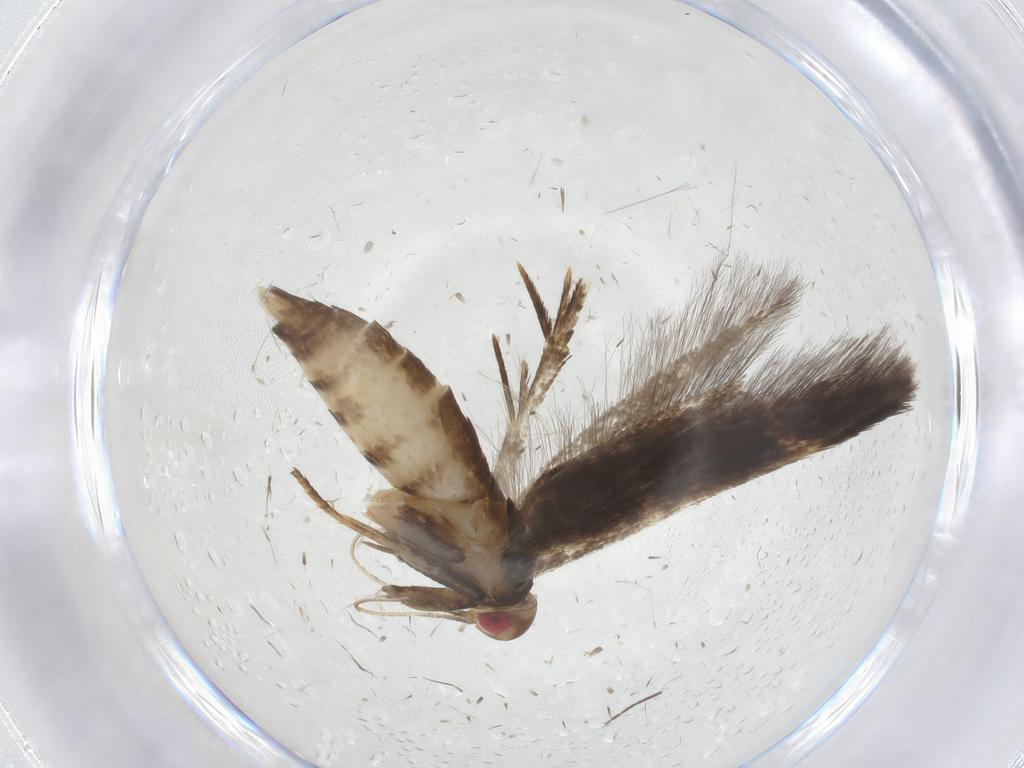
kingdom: Animalia
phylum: Arthropoda
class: Insecta
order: Lepidoptera
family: Gelechiidae
